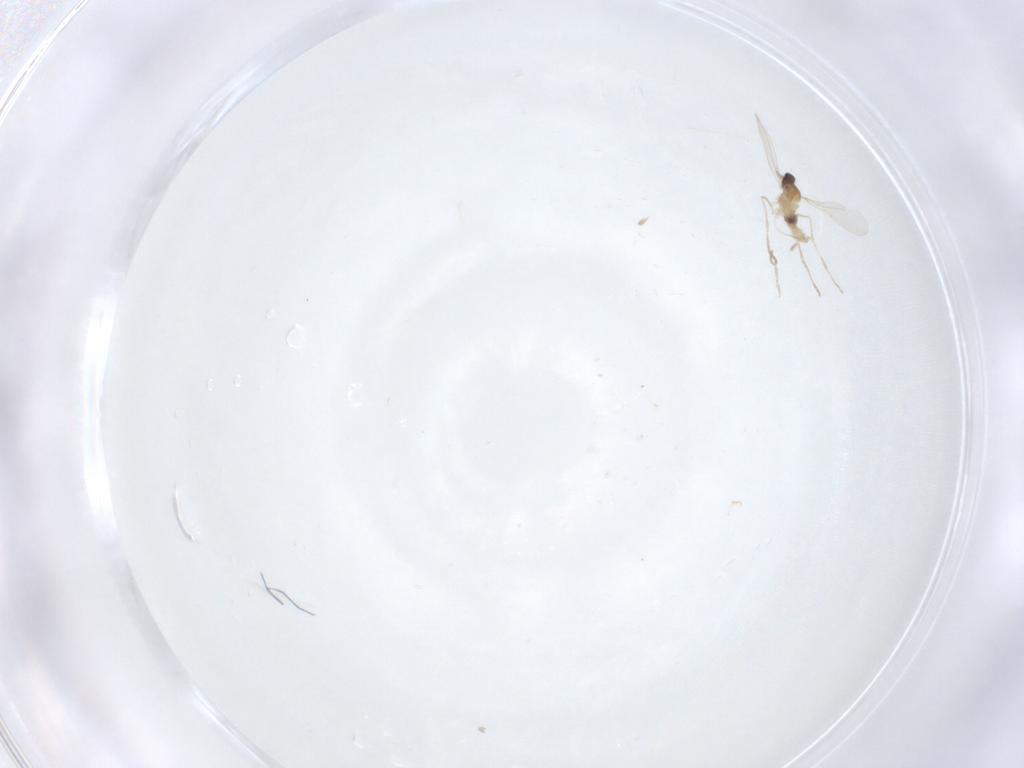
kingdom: Animalia
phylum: Arthropoda
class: Insecta
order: Diptera
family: Cecidomyiidae
